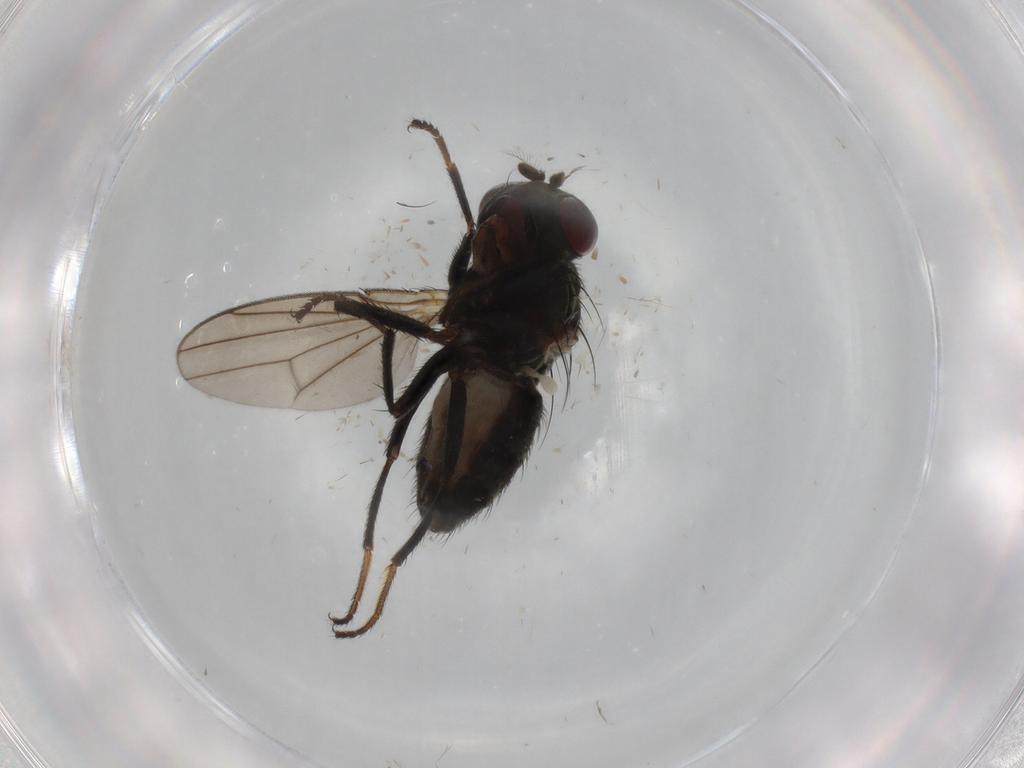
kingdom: Animalia
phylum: Arthropoda
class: Insecta
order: Diptera
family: Ephydridae
